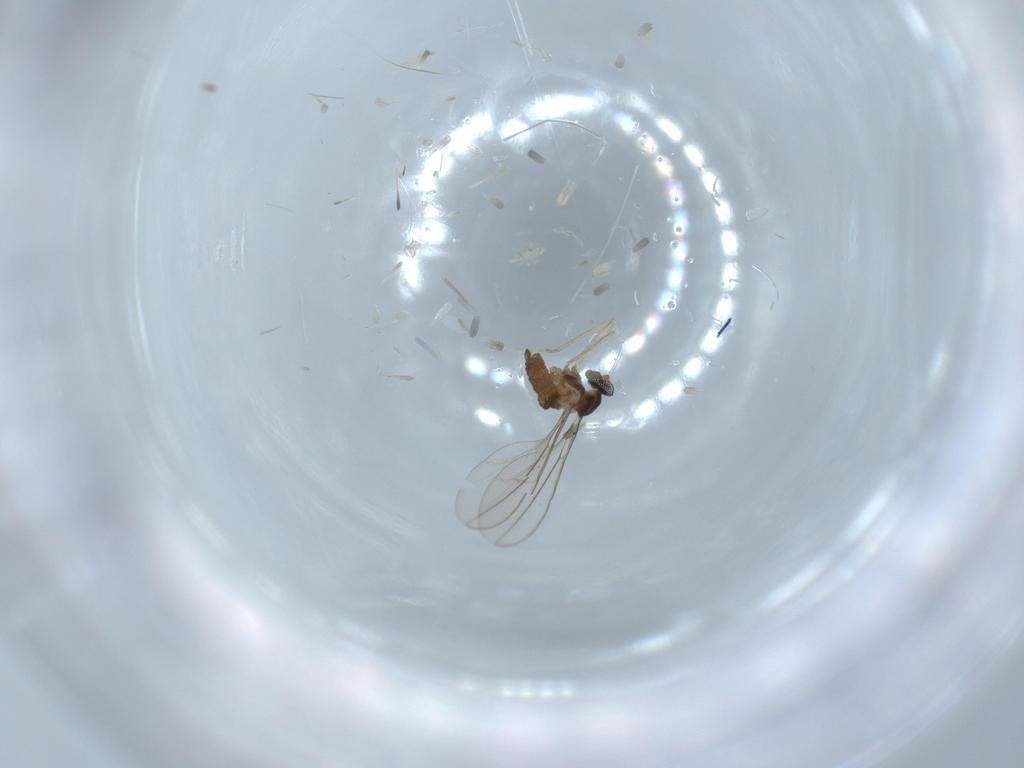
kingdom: Animalia
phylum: Arthropoda
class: Insecta
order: Diptera
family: Cecidomyiidae
